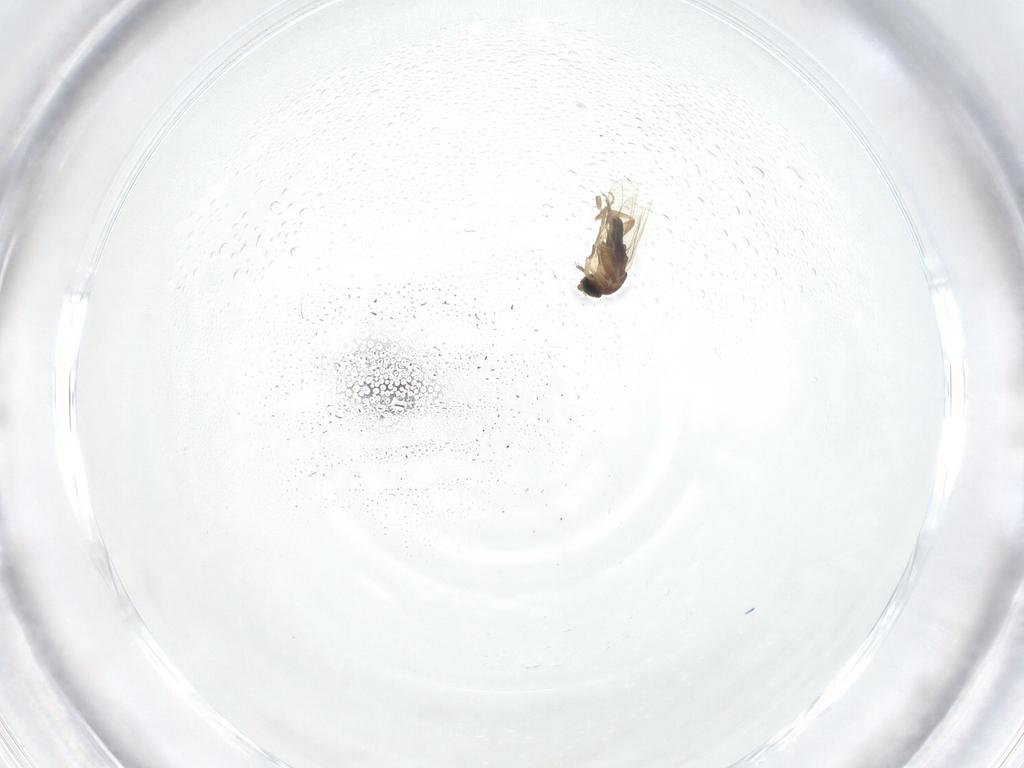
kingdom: Animalia
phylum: Arthropoda
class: Insecta
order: Diptera
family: Phoridae
